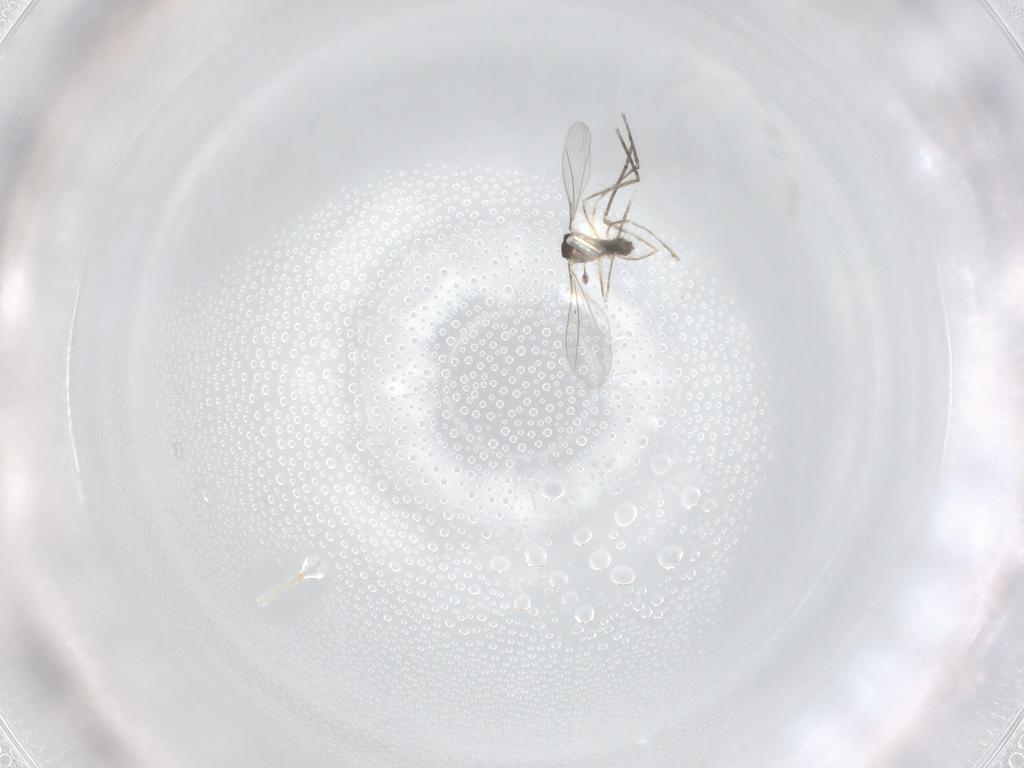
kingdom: Animalia
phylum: Arthropoda
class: Insecta
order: Diptera
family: Cecidomyiidae
